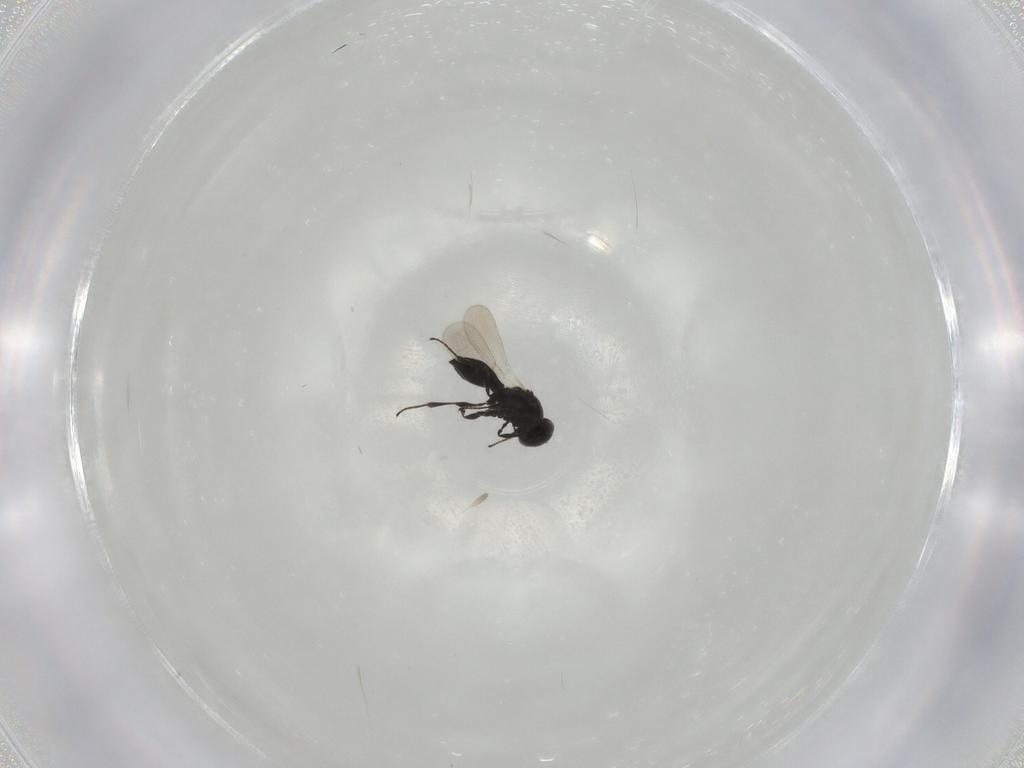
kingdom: Animalia
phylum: Arthropoda
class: Insecta
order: Hymenoptera
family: Platygastridae
